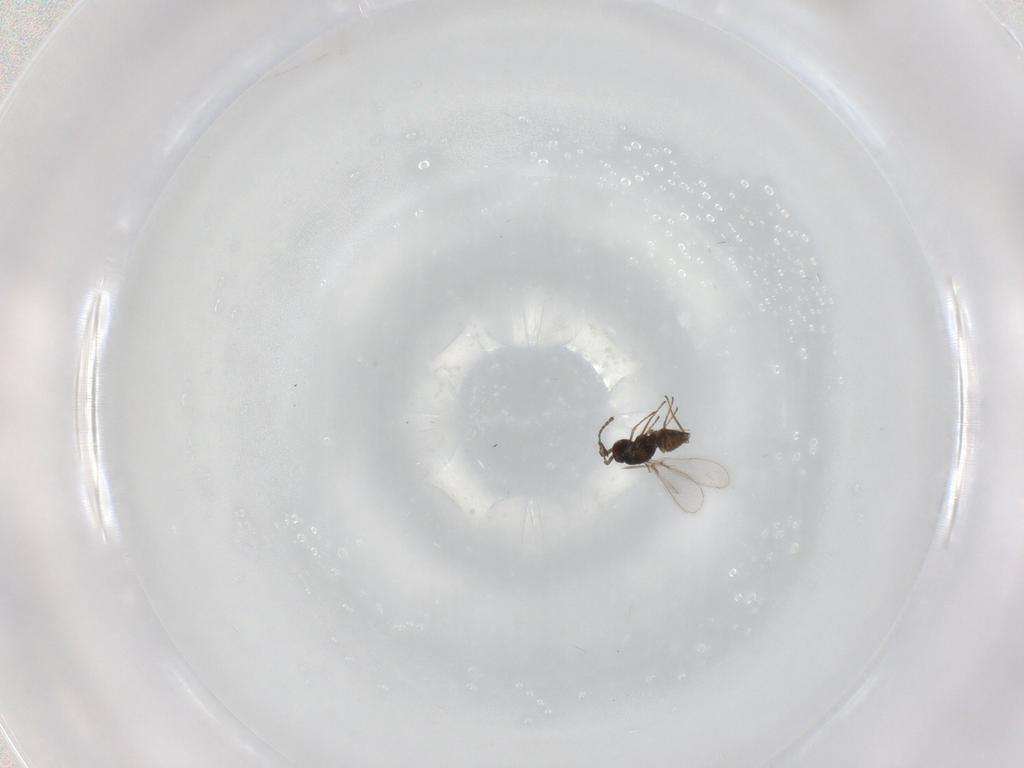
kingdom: Animalia
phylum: Arthropoda
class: Insecta
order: Hymenoptera
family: Mymaridae
